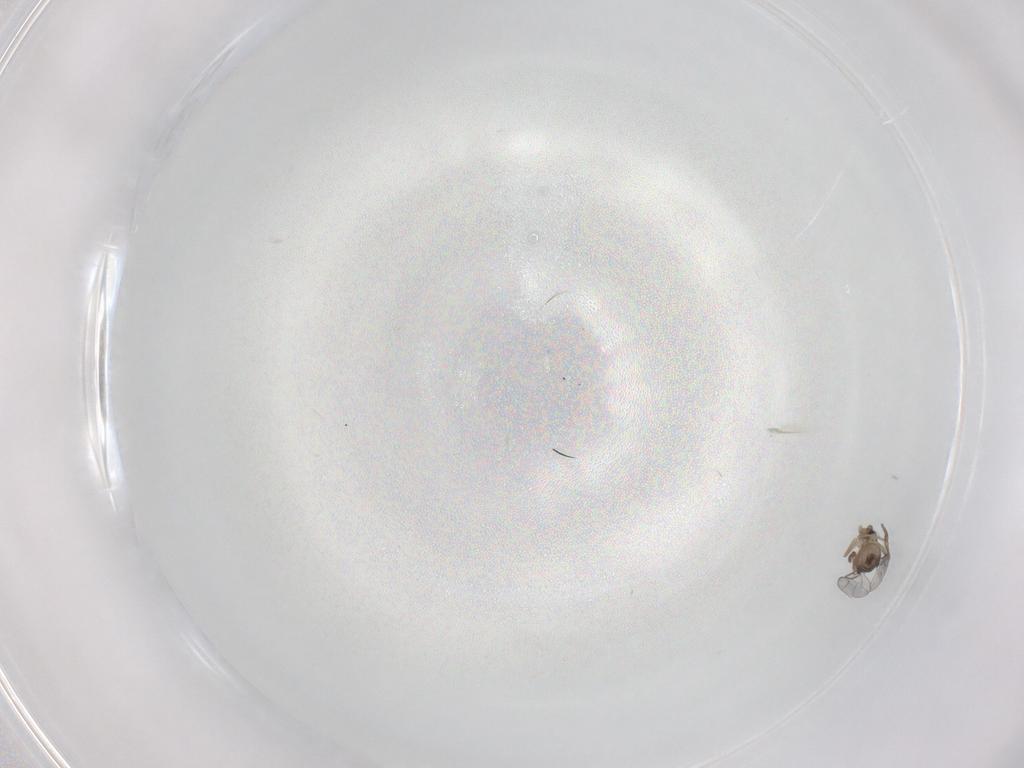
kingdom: Animalia
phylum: Arthropoda
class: Insecta
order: Diptera
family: Phoridae
